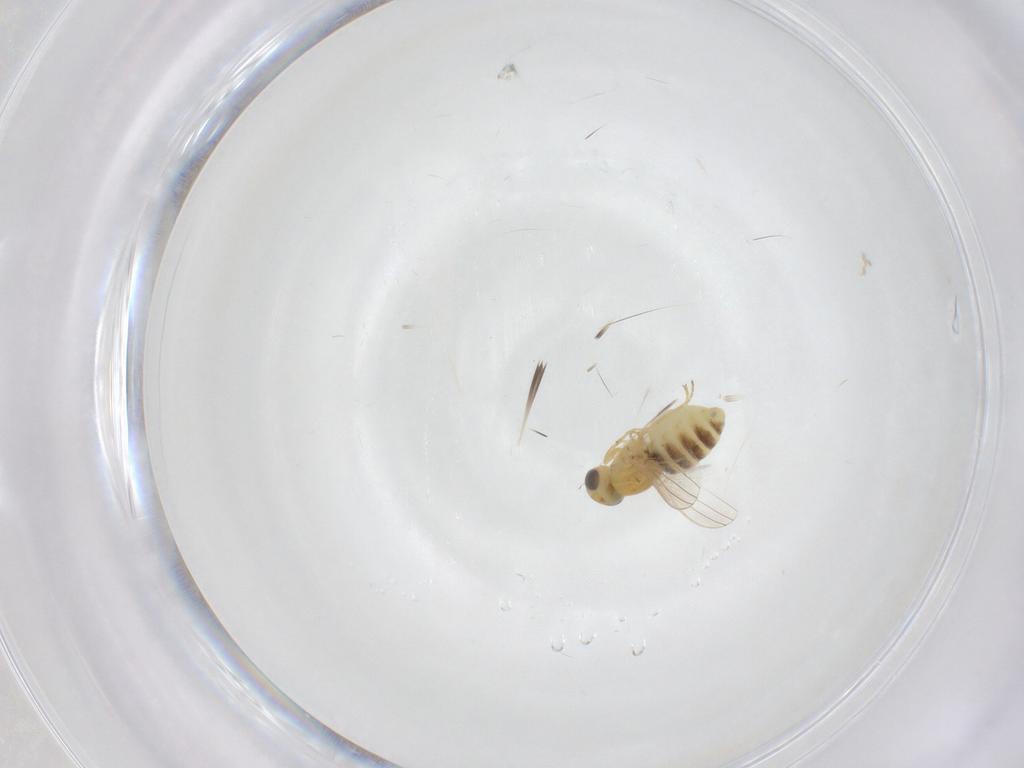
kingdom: Animalia
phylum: Arthropoda
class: Insecta
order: Diptera
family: Chyromyidae
